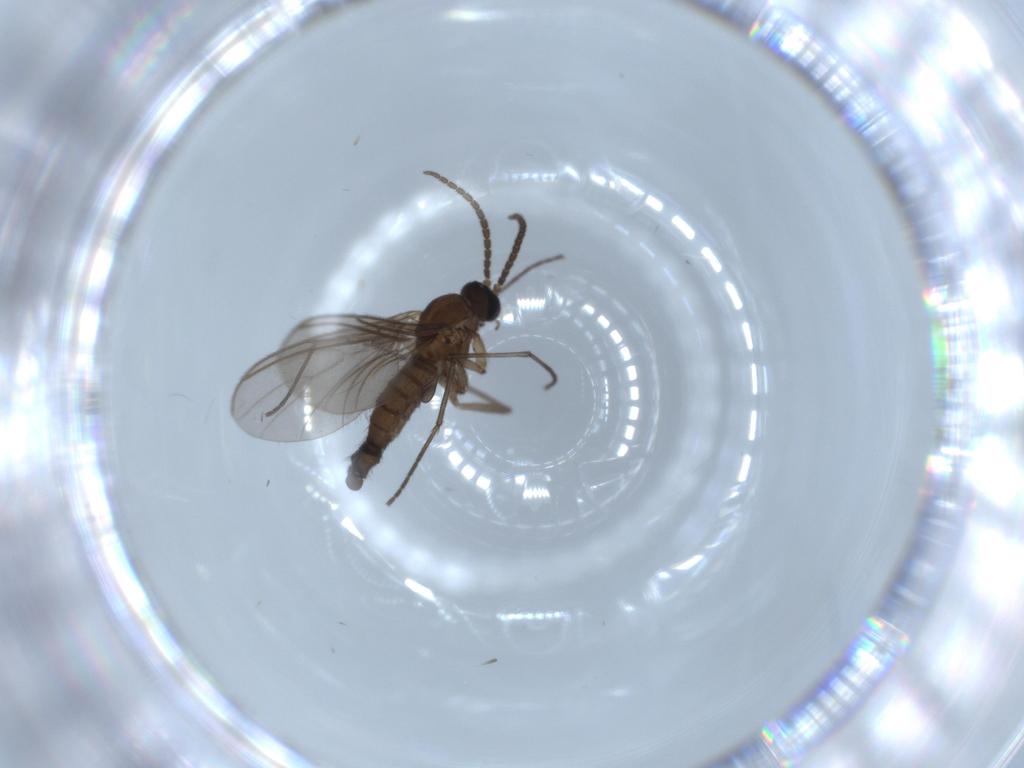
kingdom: Animalia
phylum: Arthropoda
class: Insecta
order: Diptera
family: Sciaridae
